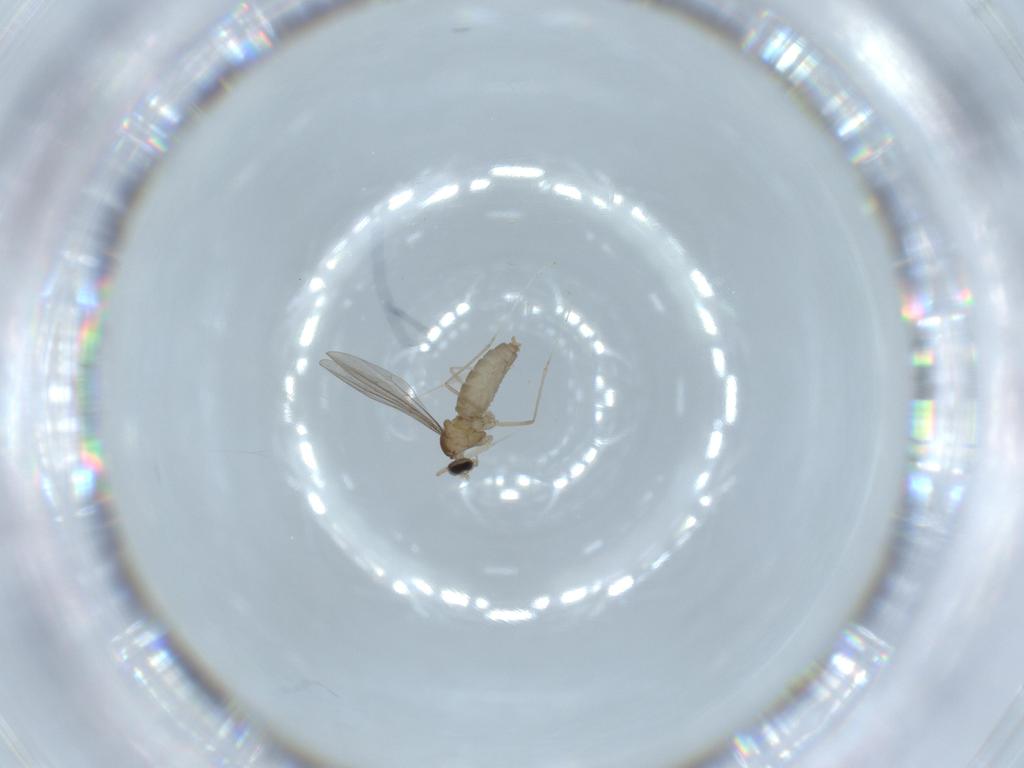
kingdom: Animalia
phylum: Arthropoda
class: Insecta
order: Diptera
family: Cecidomyiidae
